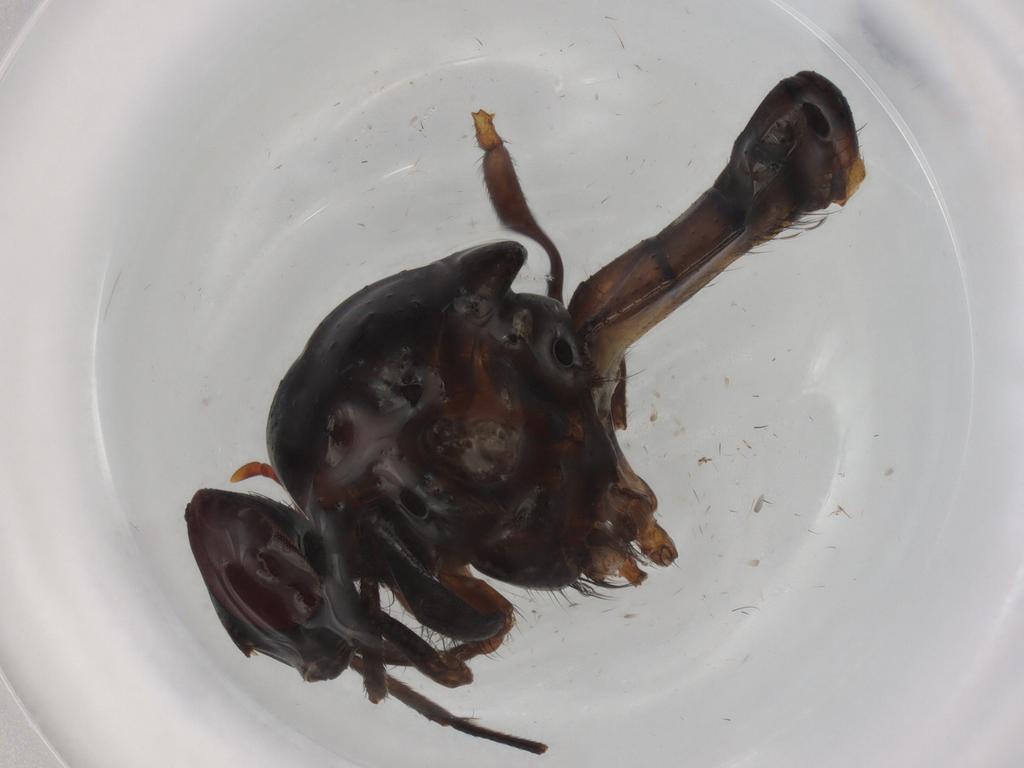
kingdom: Animalia
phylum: Arthropoda
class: Insecta
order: Diptera
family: Anthomyiidae
